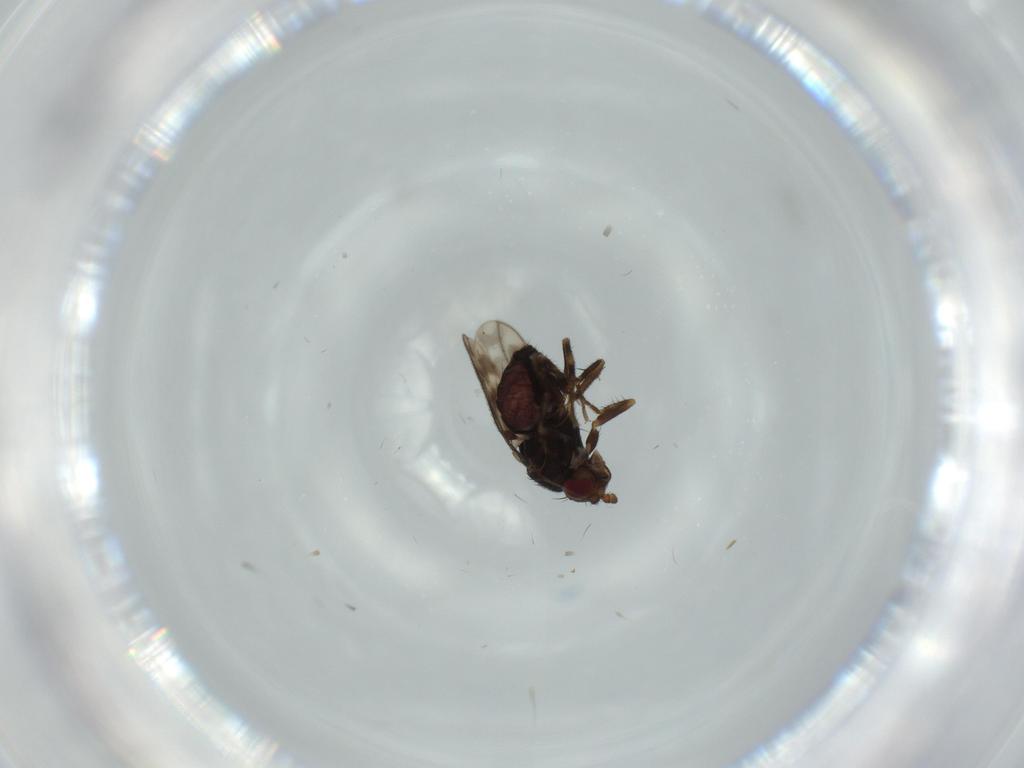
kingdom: Animalia
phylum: Arthropoda
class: Insecta
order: Diptera
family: Sphaeroceridae
